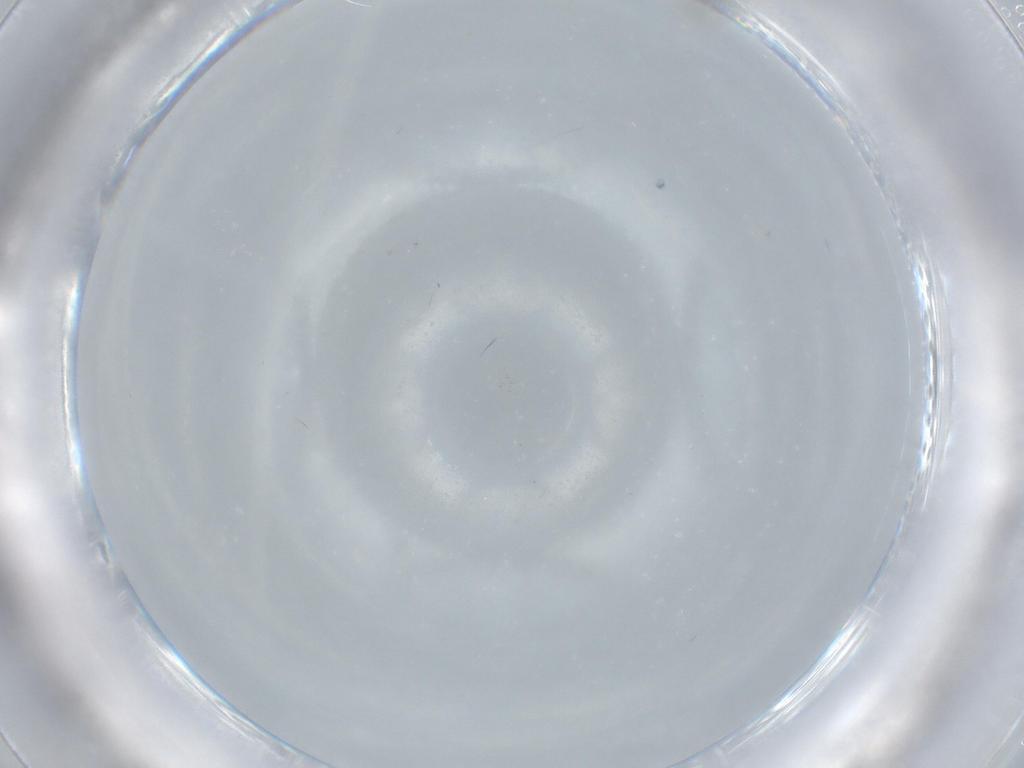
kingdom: Animalia
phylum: Arthropoda
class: Insecta
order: Diptera
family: Cecidomyiidae
